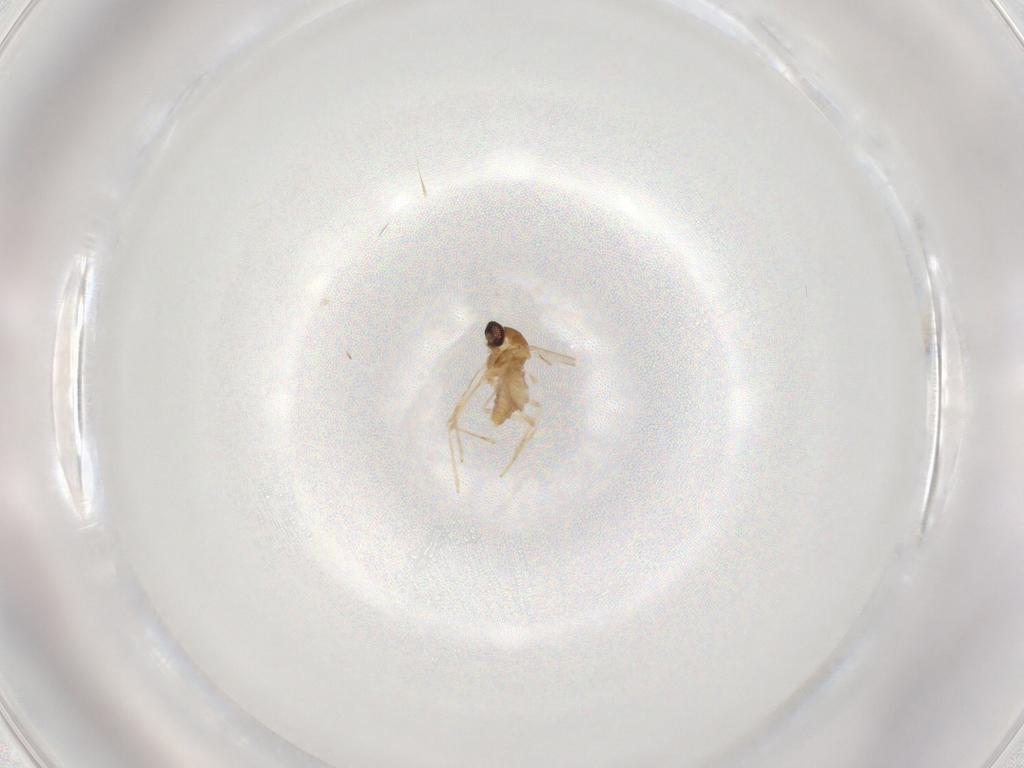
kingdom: Animalia
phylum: Arthropoda
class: Insecta
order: Diptera
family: Cecidomyiidae
